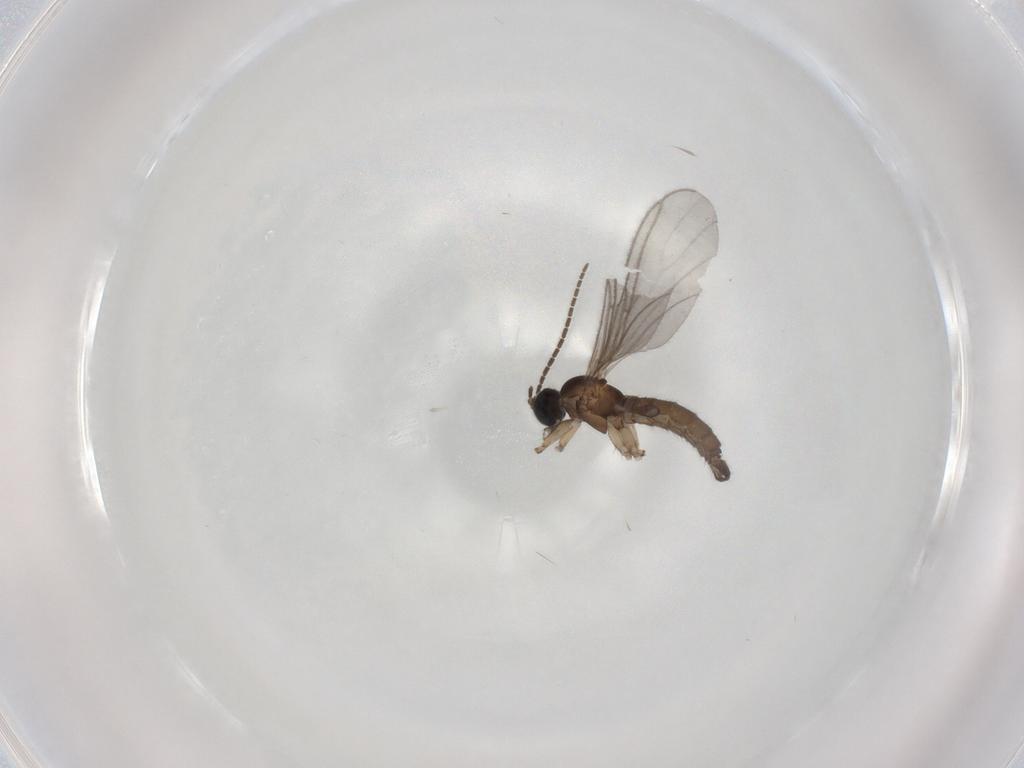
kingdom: Animalia
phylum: Arthropoda
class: Insecta
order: Diptera
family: Sciaridae
